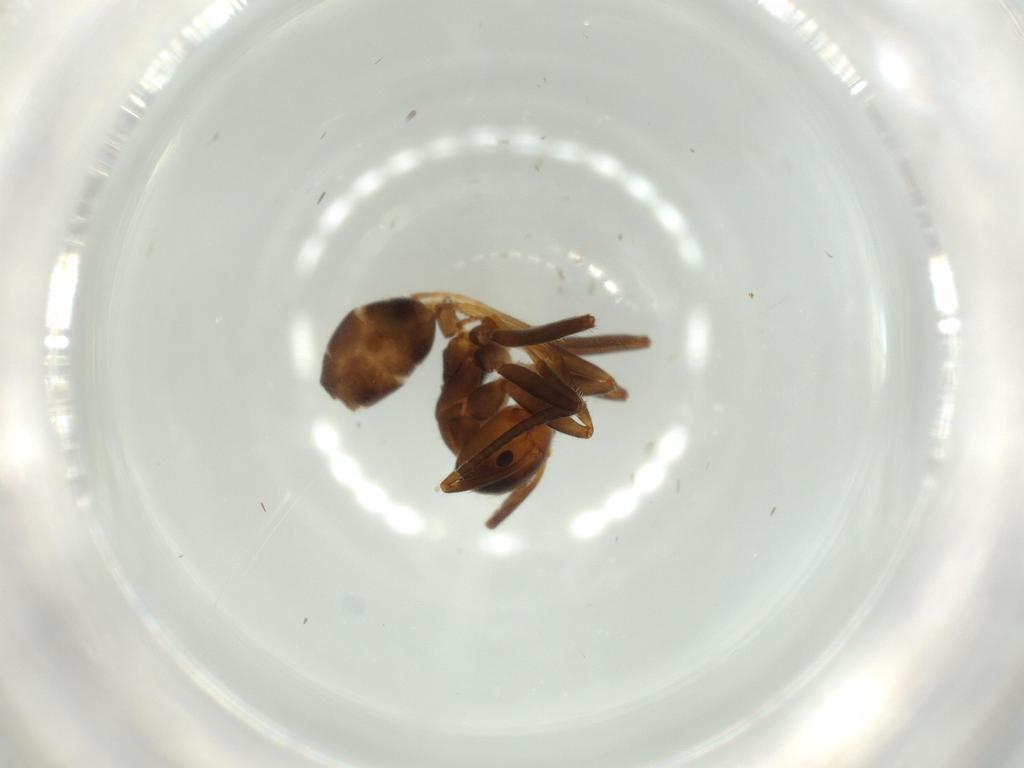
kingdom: Animalia
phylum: Arthropoda
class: Insecta
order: Hymenoptera
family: Formicidae
